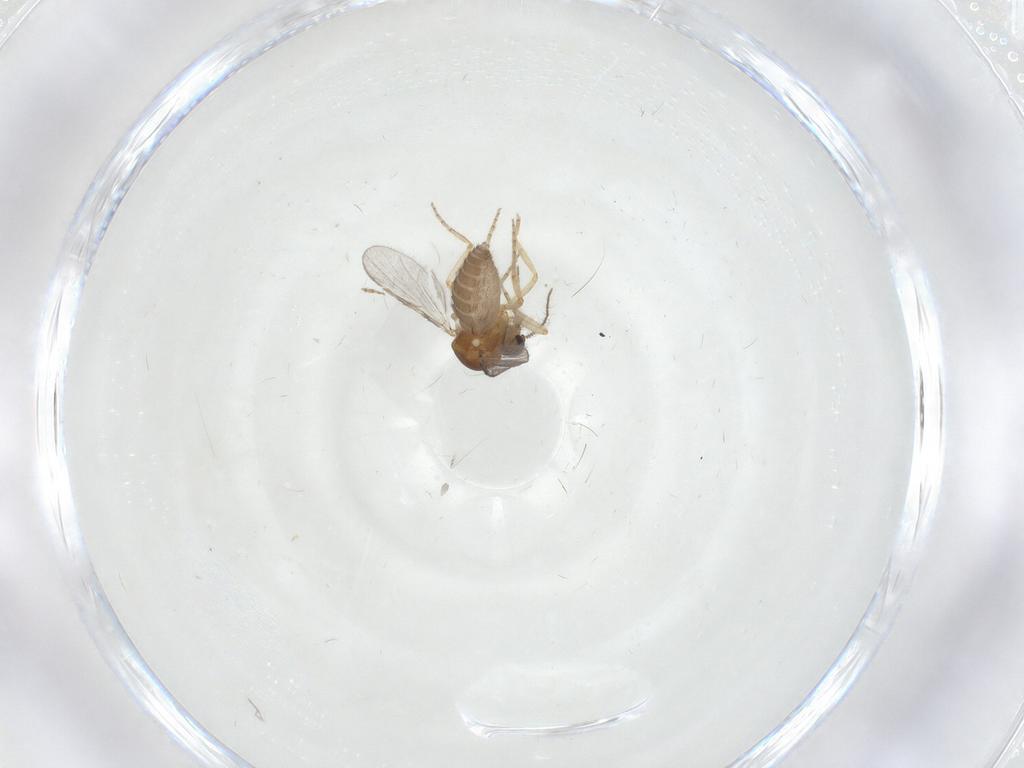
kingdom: Animalia
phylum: Arthropoda
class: Insecta
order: Diptera
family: Ceratopogonidae
